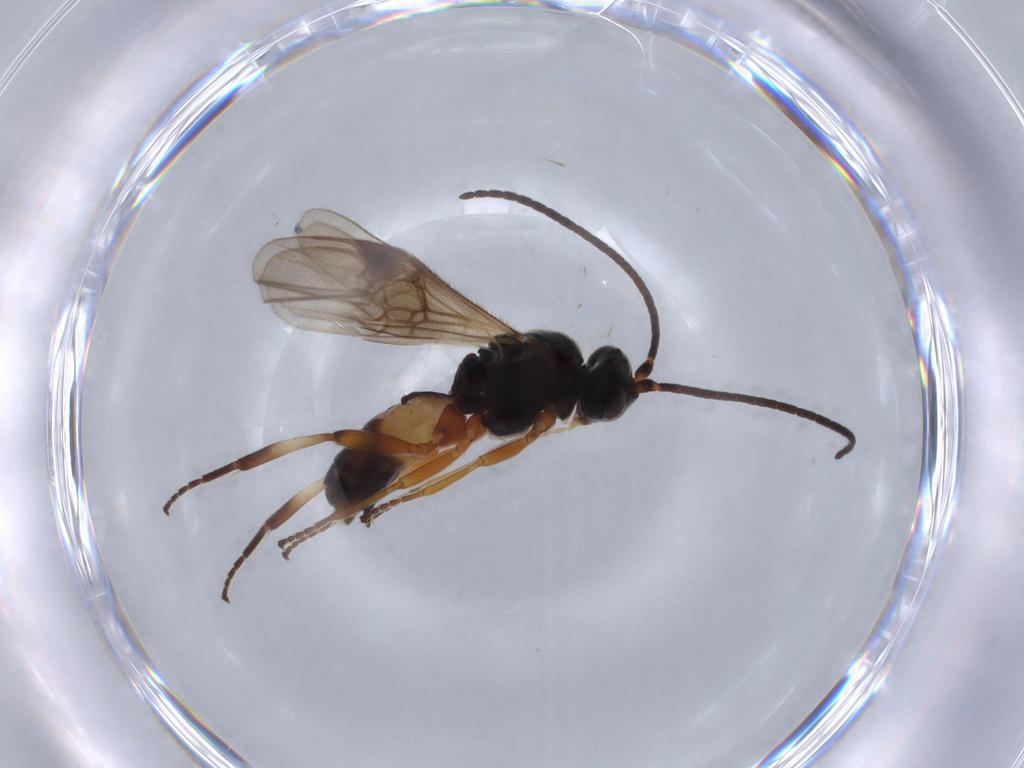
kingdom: Animalia
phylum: Arthropoda
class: Insecta
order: Hymenoptera
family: Braconidae
